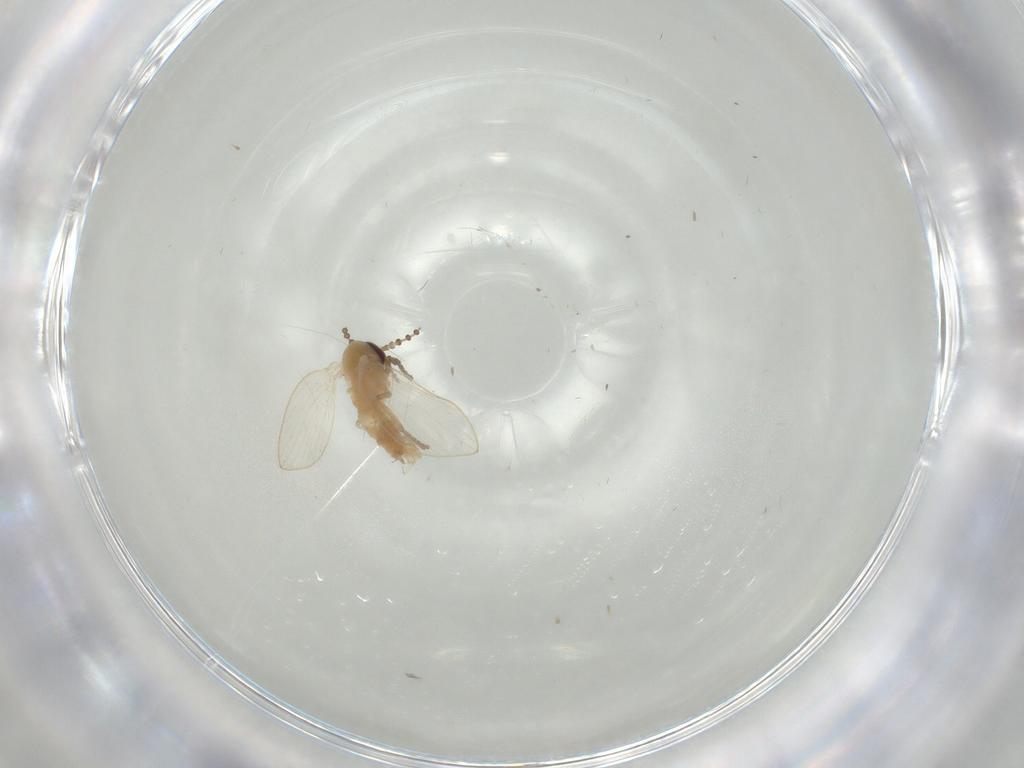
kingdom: Animalia
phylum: Arthropoda
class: Insecta
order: Diptera
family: Psychodidae
